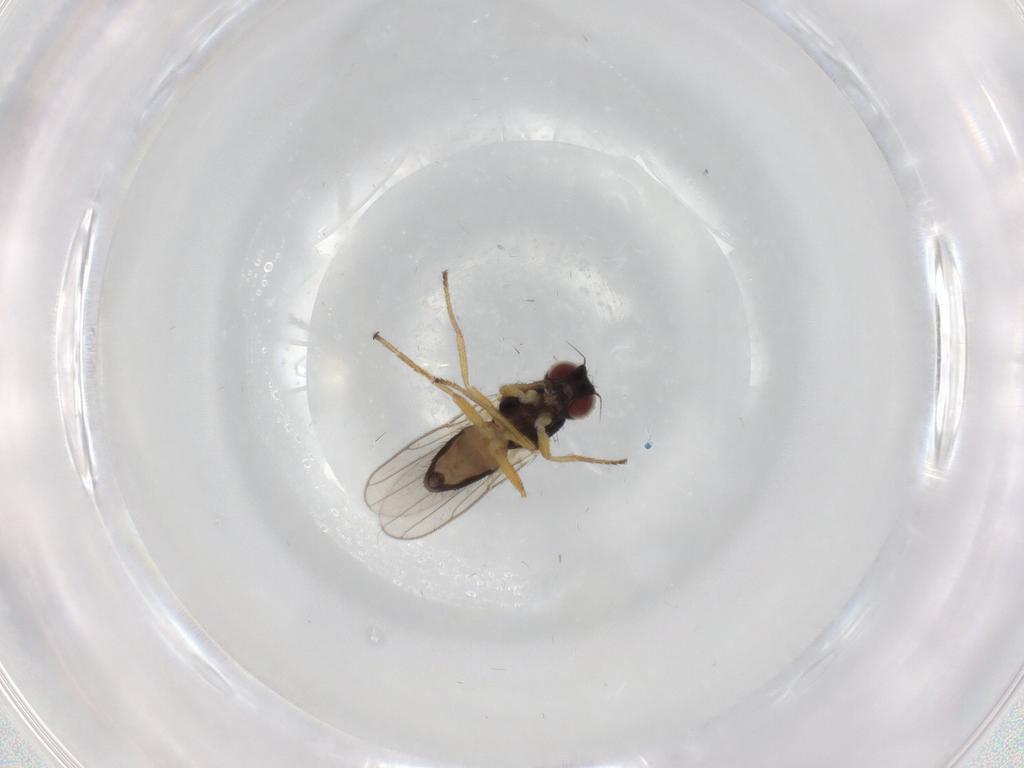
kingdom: Animalia
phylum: Arthropoda
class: Insecta
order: Diptera
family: Chloropidae
